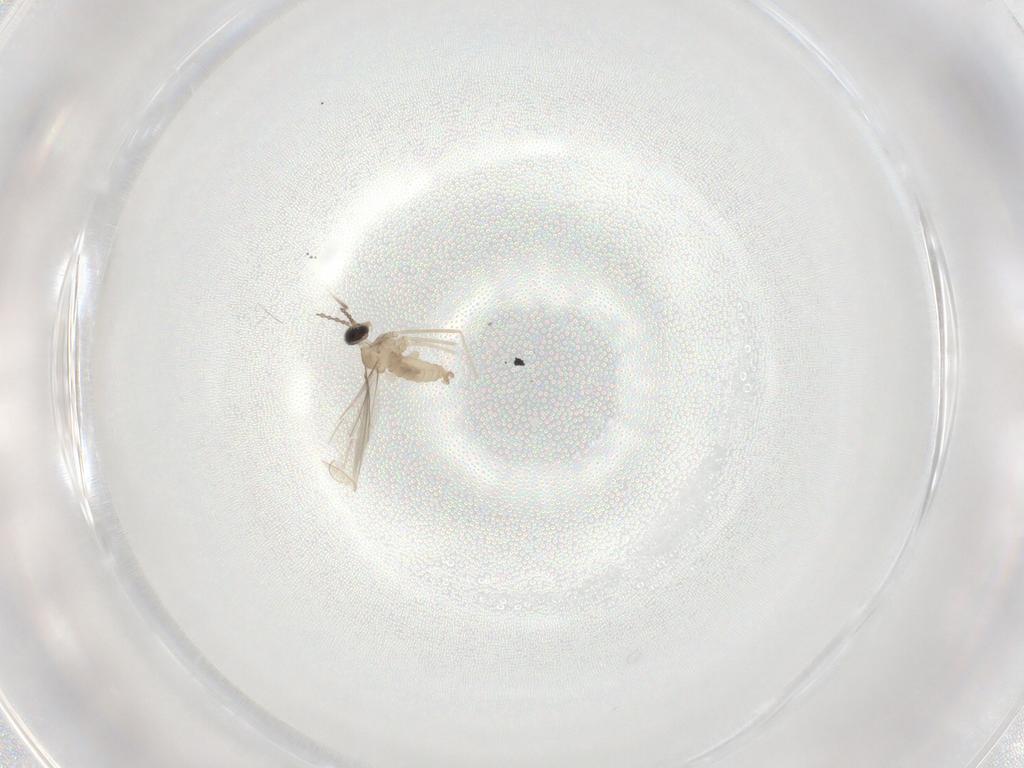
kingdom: Animalia
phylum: Arthropoda
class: Insecta
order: Diptera
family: Cecidomyiidae
